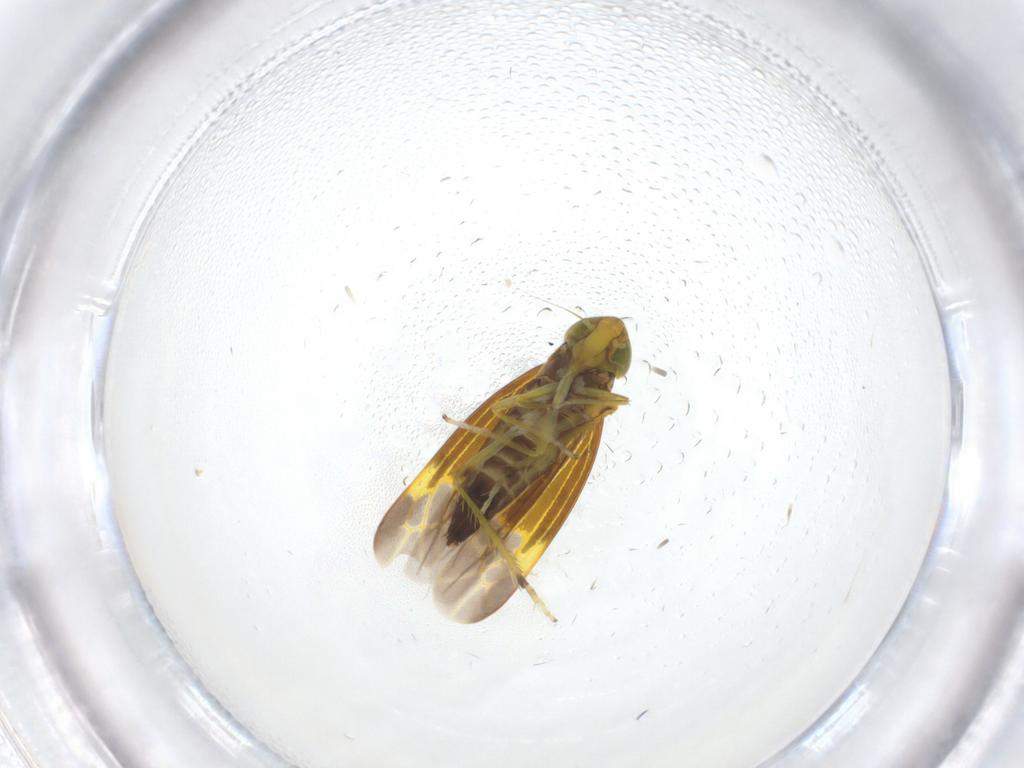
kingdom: Animalia
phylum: Arthropoda
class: Insecta
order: Hemiptera
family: Cicadellidae
